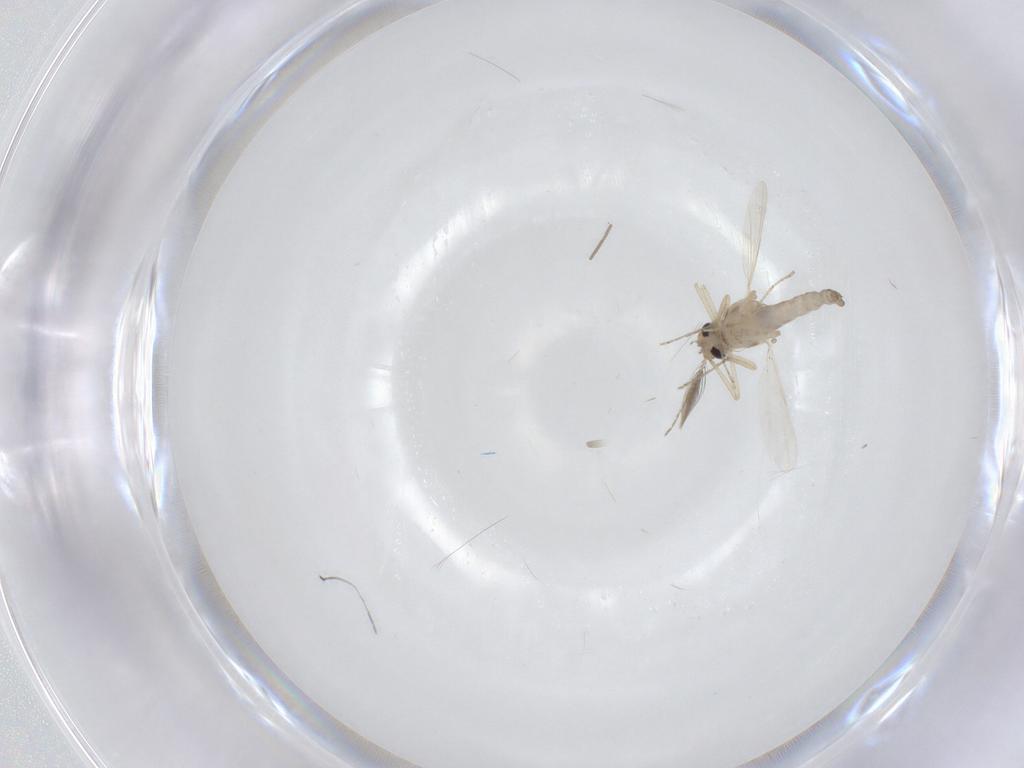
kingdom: Animalia
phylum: Arthropoda
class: Insecta
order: Diptera
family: Ceratopogonidae
